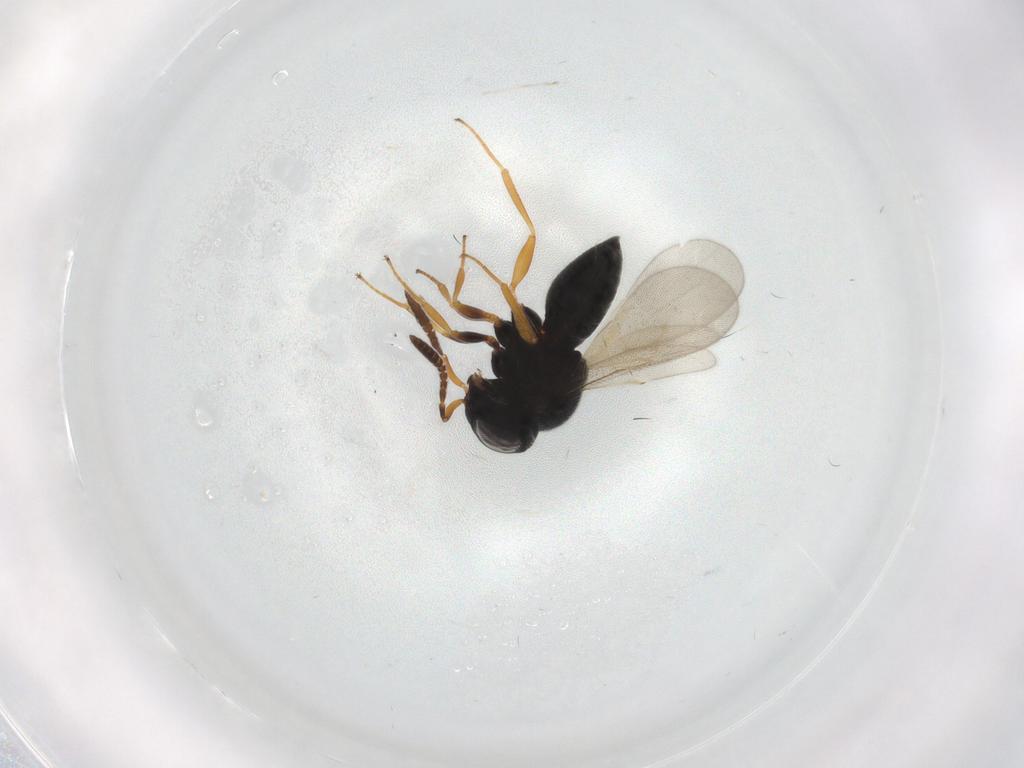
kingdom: Animalia
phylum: Arthropoda
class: Insecta
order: Hymenoptera
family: Scelionidae
